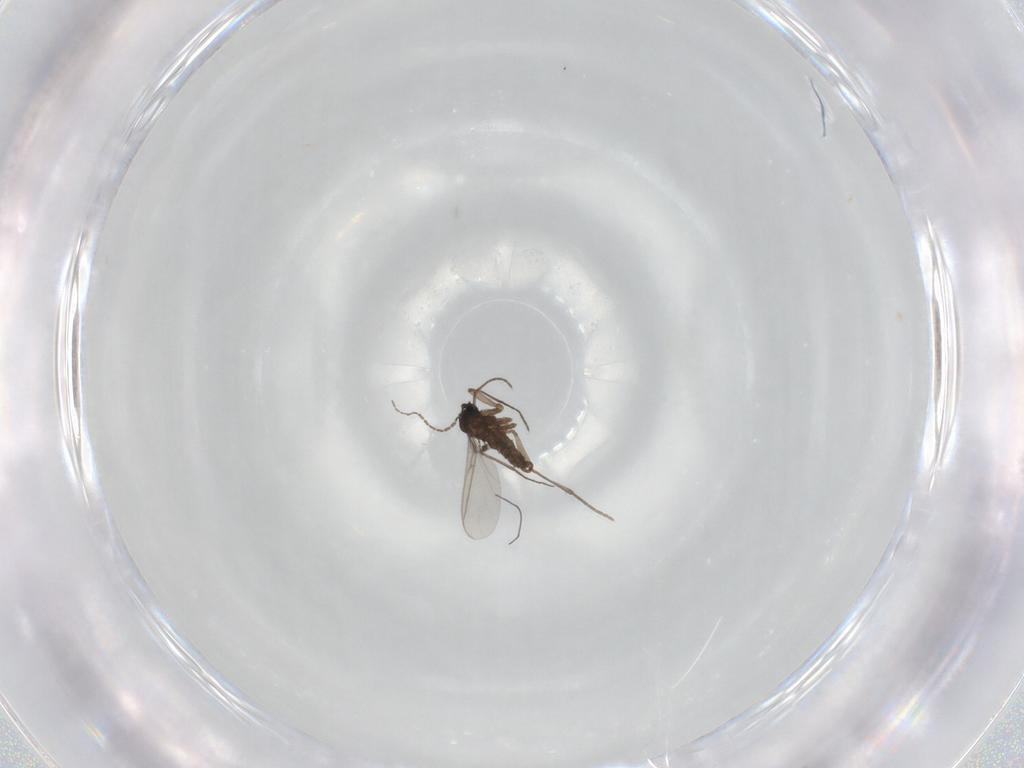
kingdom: Animalia
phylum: Arthropoda
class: Insecta
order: Diptera
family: Sciaridae
